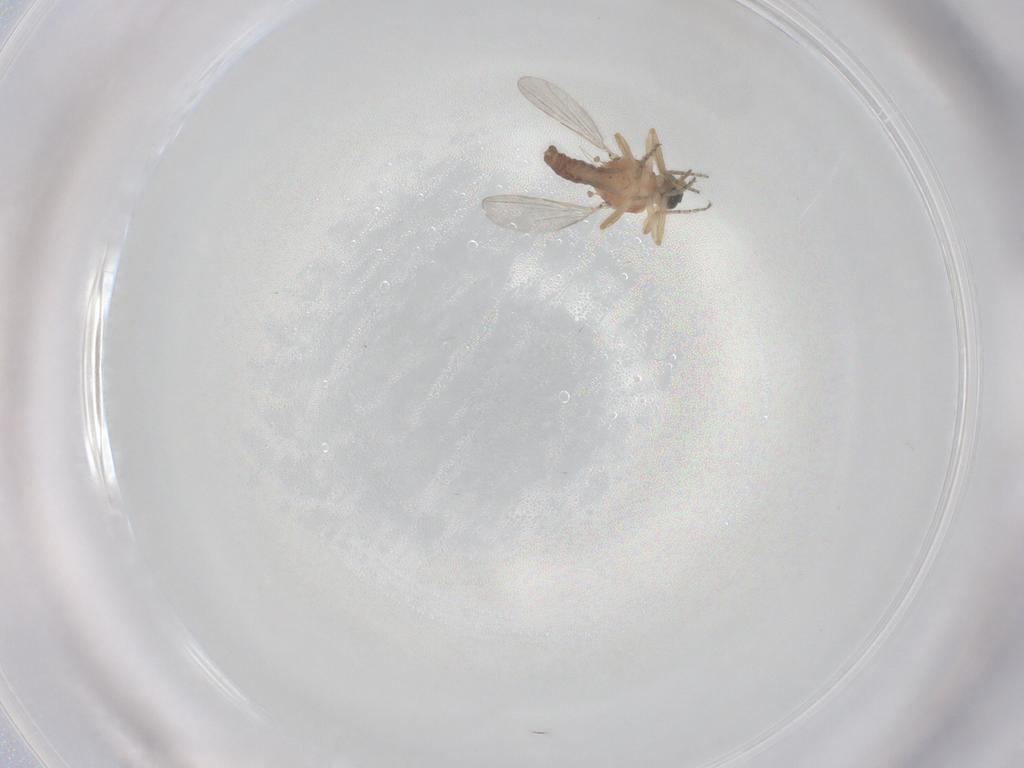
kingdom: Animalia
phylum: Arthropoda
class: Insecta
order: Diptera
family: Ceratopogonidae
